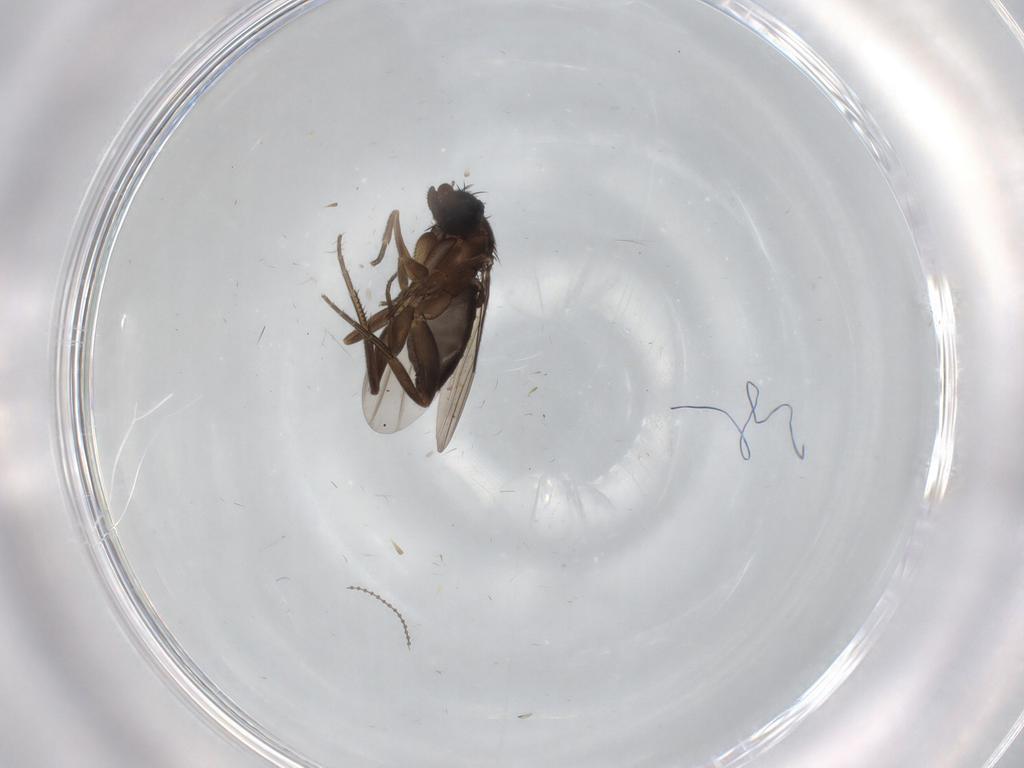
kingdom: Animalia
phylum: Arthropoda
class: Insecta
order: Diptera
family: Phoridae
